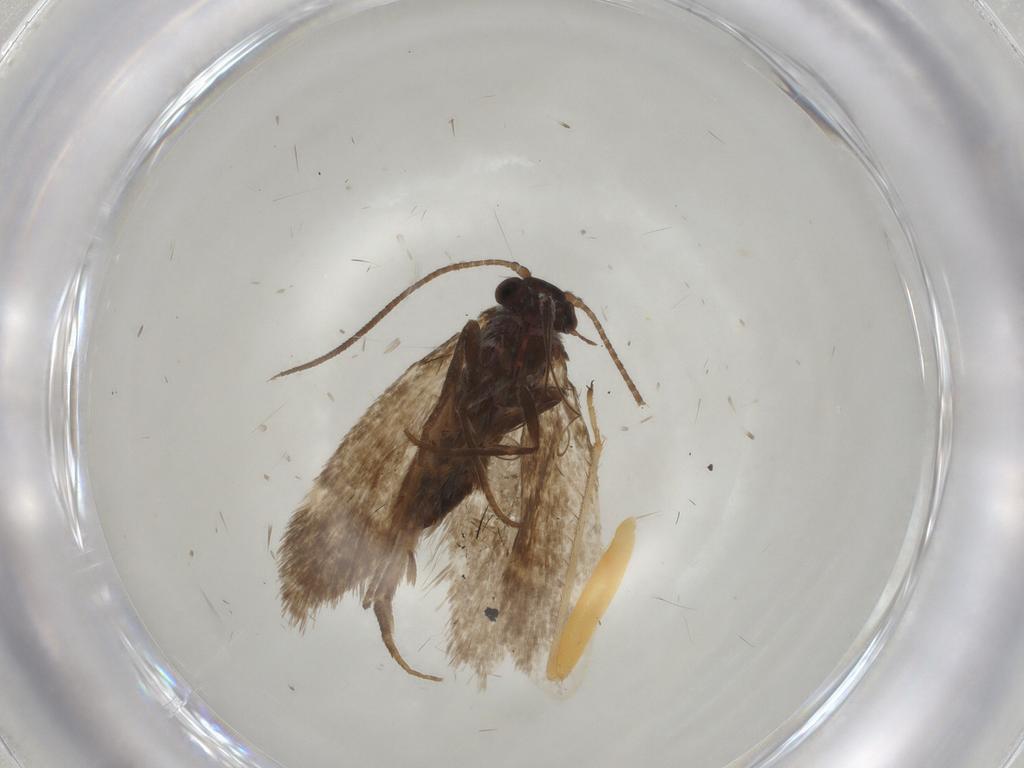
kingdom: Animalia
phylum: Arthropoda
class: Insecta
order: Lepidoptera
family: Adelidae
